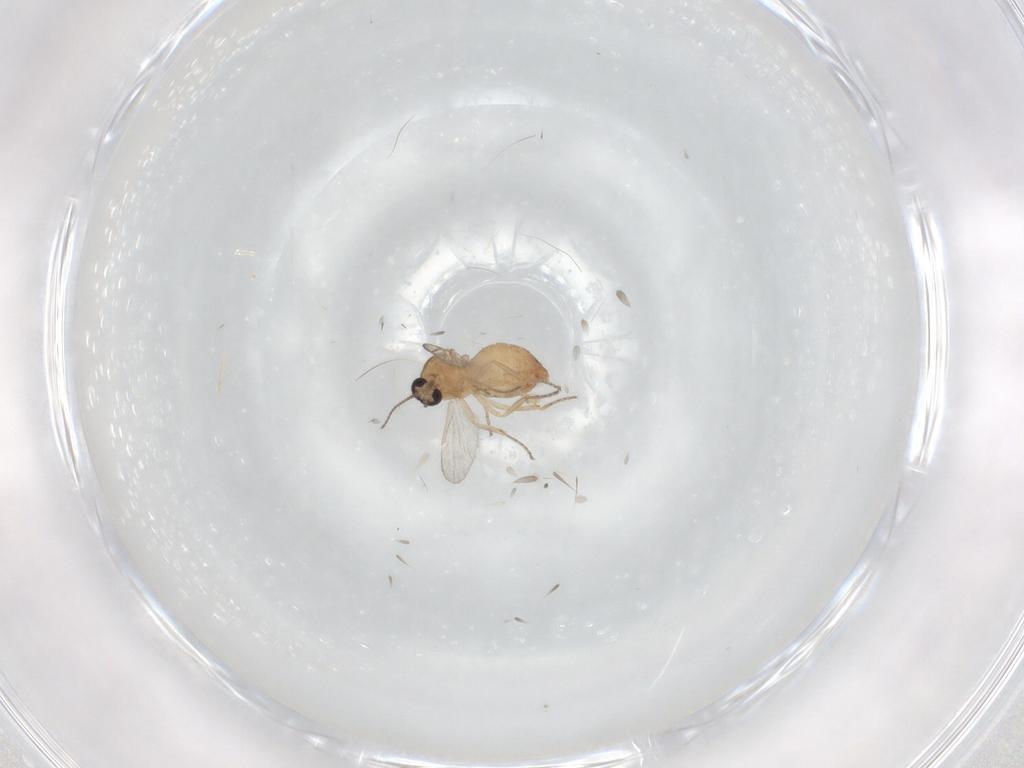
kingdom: Animalia
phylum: Arthropoda
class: Insecta
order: Diptera
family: Ceratopogonidae
